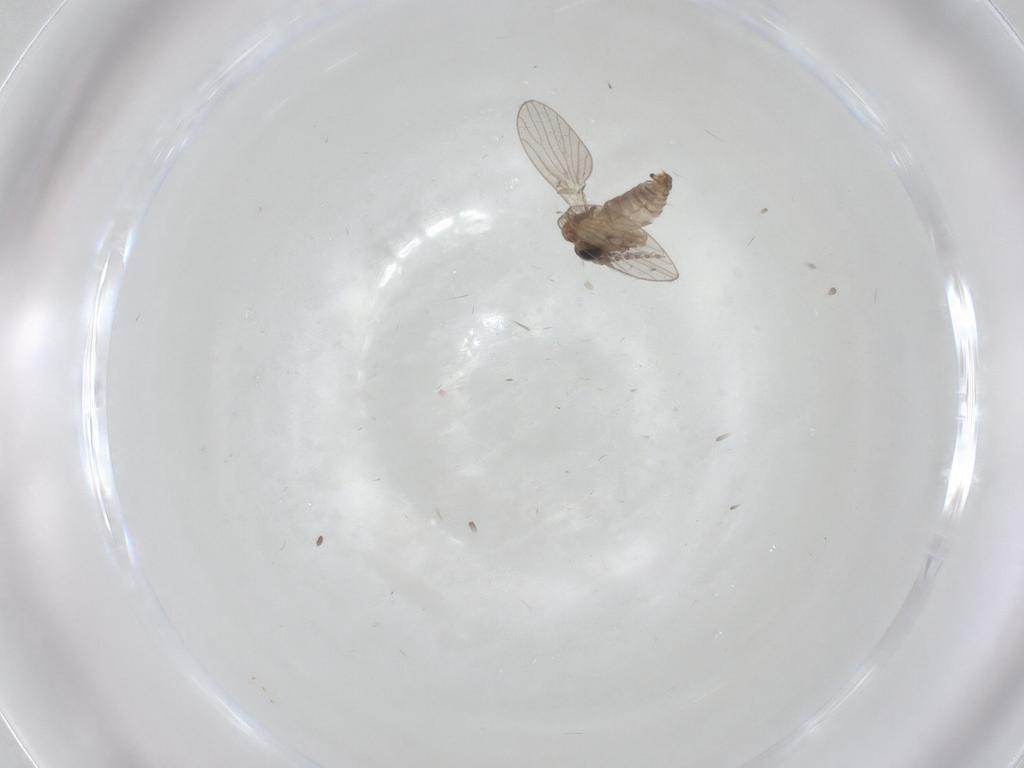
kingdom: Animalia
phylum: Arthropoda
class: Insecta
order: Diptera
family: Psychodidae
